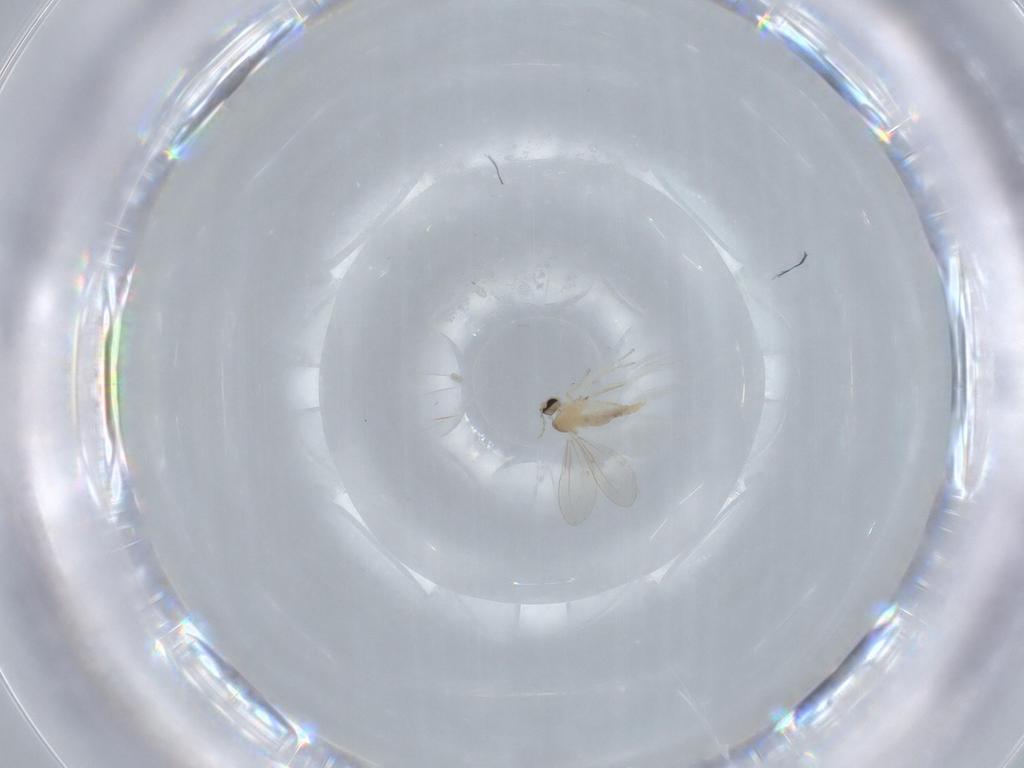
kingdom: Animalia
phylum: Arthropoda
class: Insecta
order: Diptera
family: Cecidomyiidae
